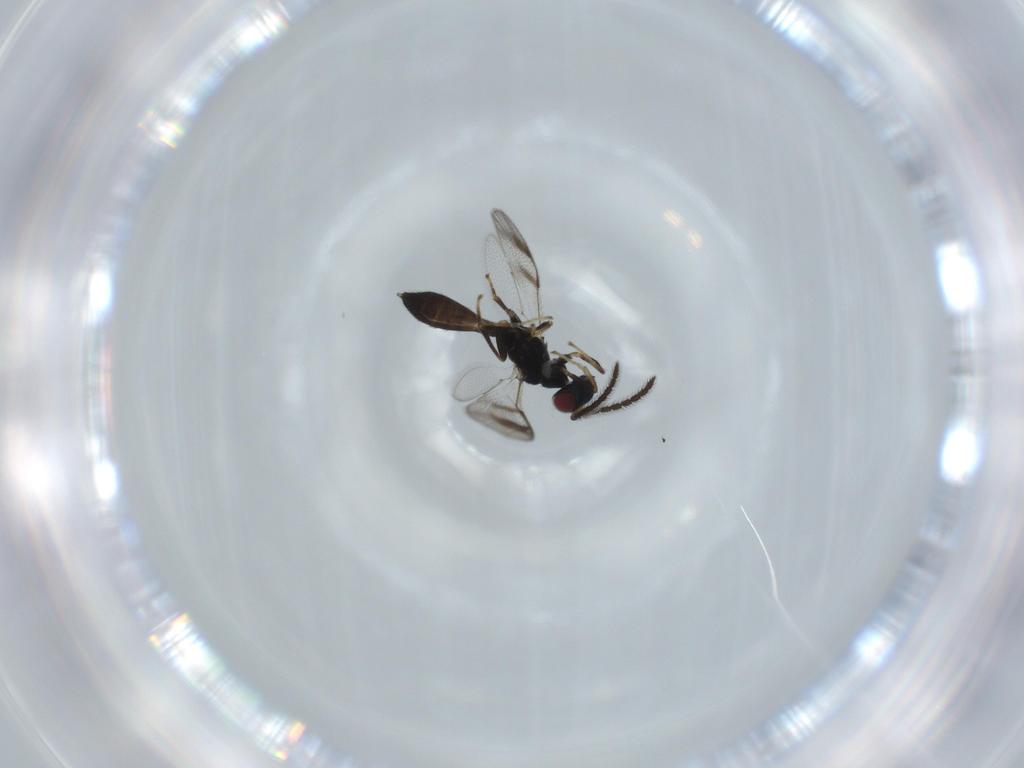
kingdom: Animalia
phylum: Arthropoda
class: Insecta
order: Hymenoptera
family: Pteromalidae
